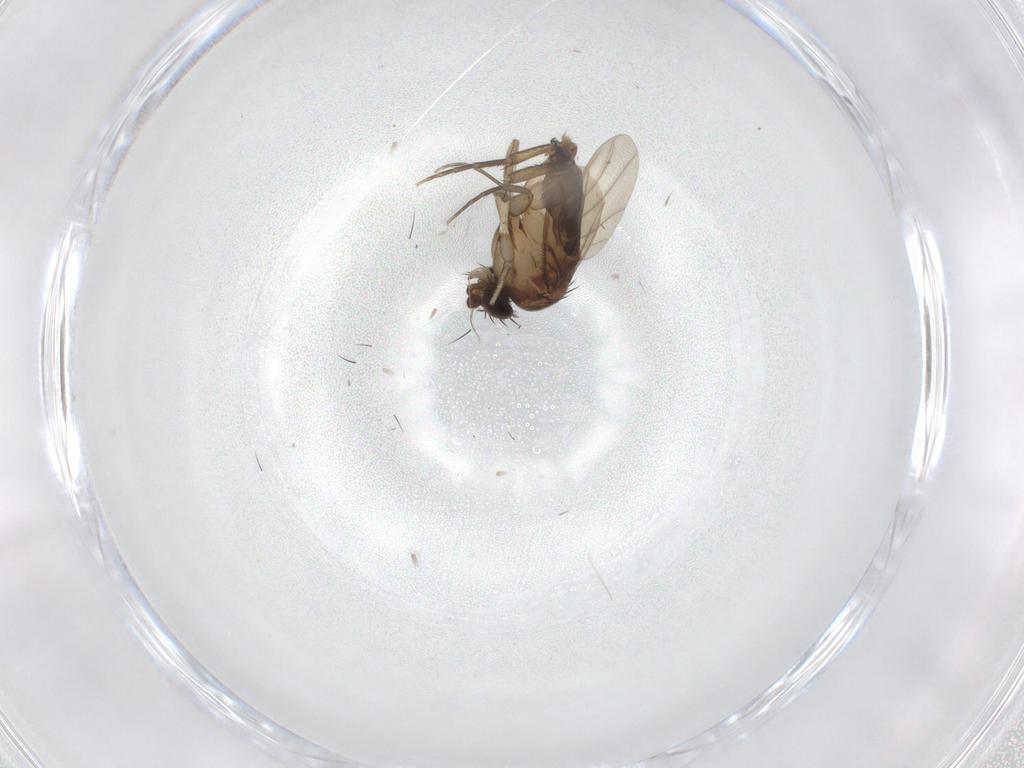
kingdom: Animalia
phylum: Arthropoda
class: Insecta
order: Diptera
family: Phoridae
